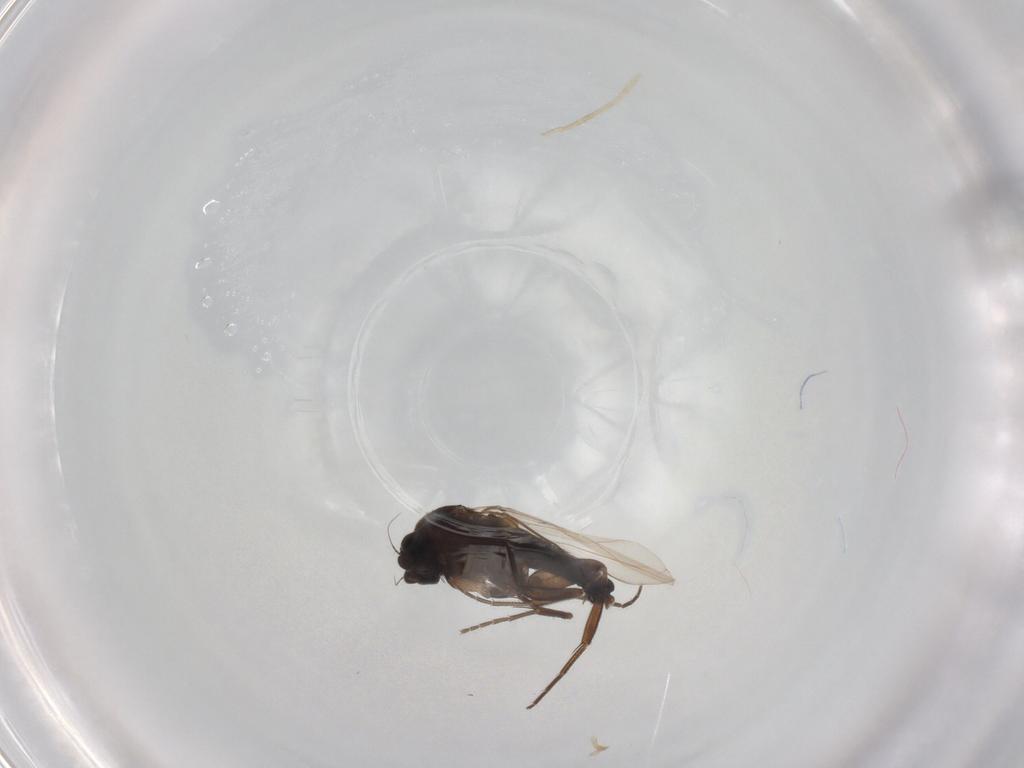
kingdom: Animalia
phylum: Arthropoda
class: Insecta
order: Diptera
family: Phoridae
